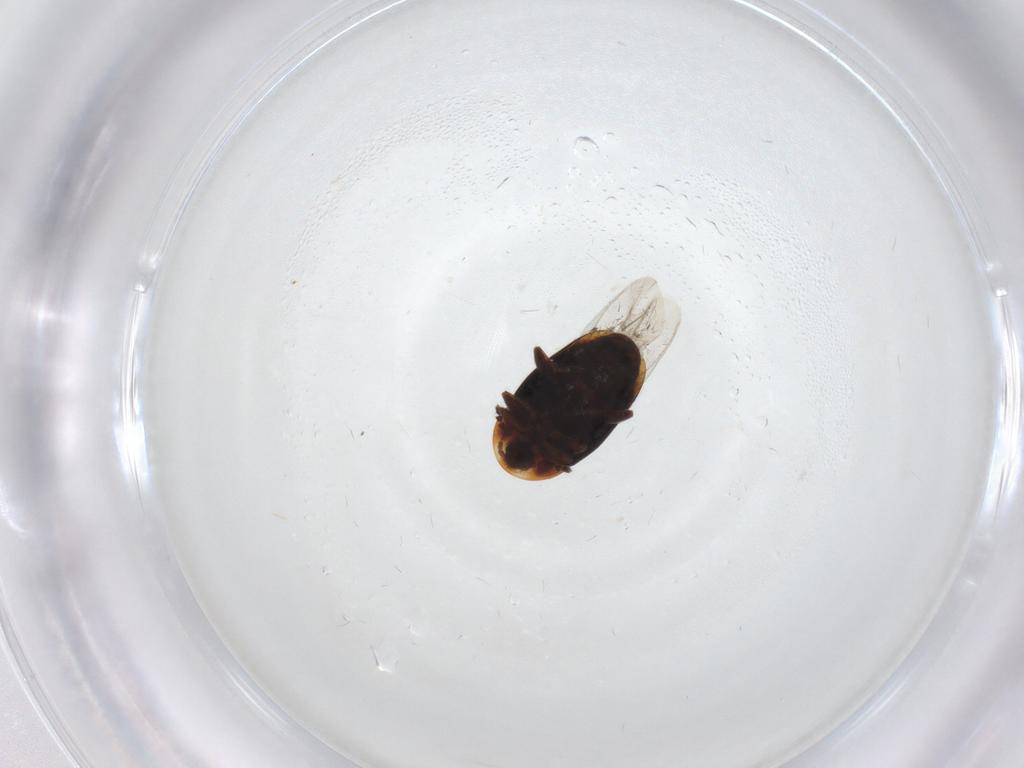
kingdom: Animalia
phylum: Arthropoda
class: Insecta
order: Coleoptera
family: Corylophidae
